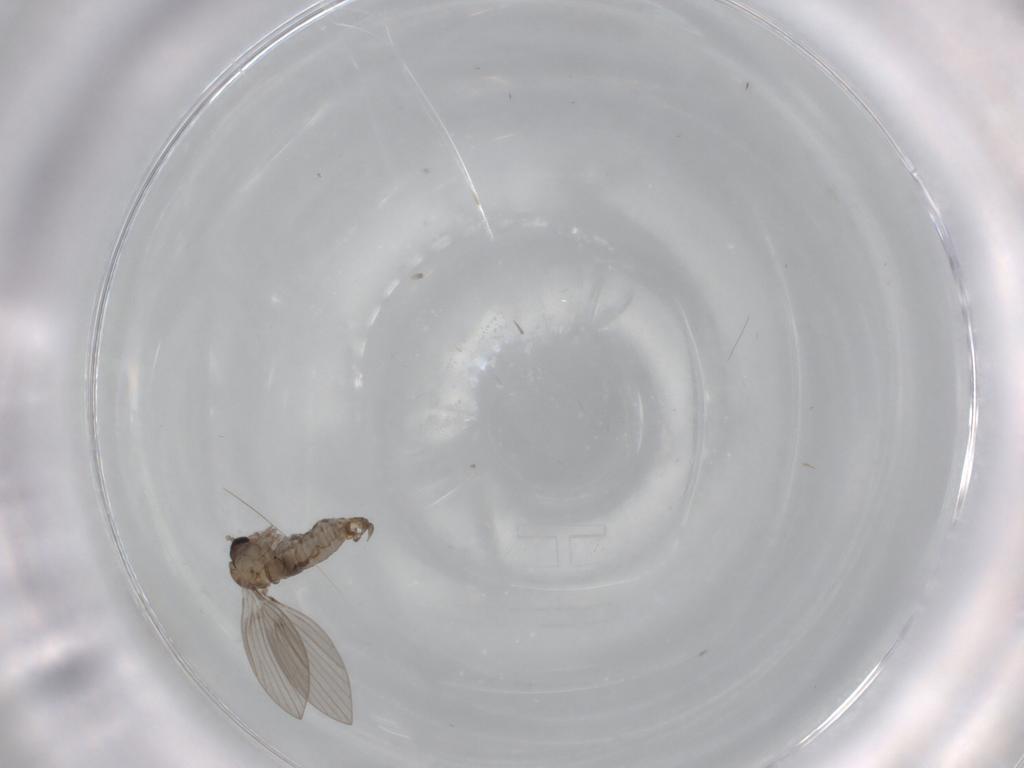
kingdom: Animalia
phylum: Arthropoda
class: Insecta
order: Diptera
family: Psychodidae
